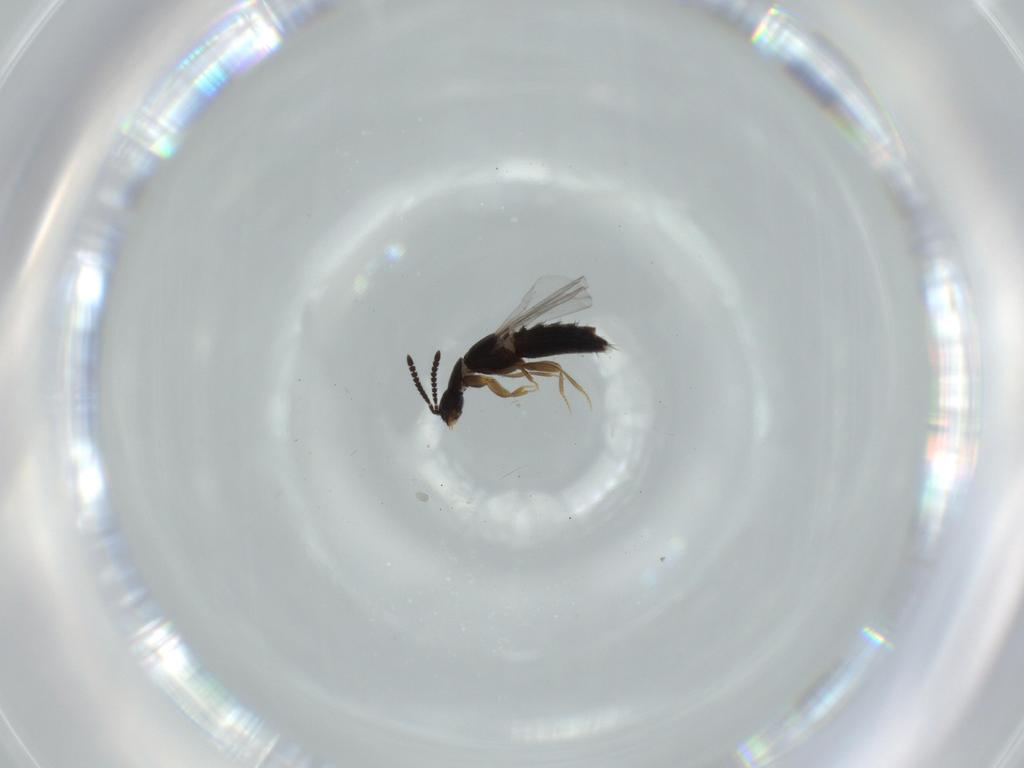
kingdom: Animalia
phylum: Arthropoda
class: Insecta
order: Coleoptera
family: Staphylinidae
